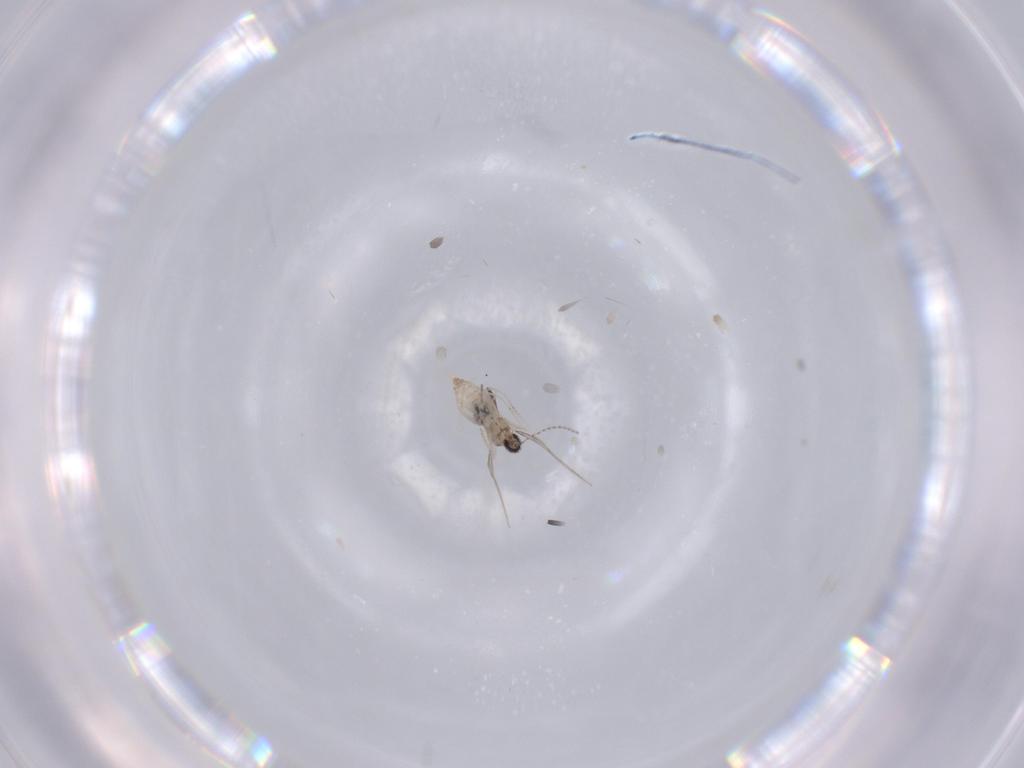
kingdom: Animalia
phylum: Arthropoda
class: Insecta
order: Diptera
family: Cecidomyiidae
